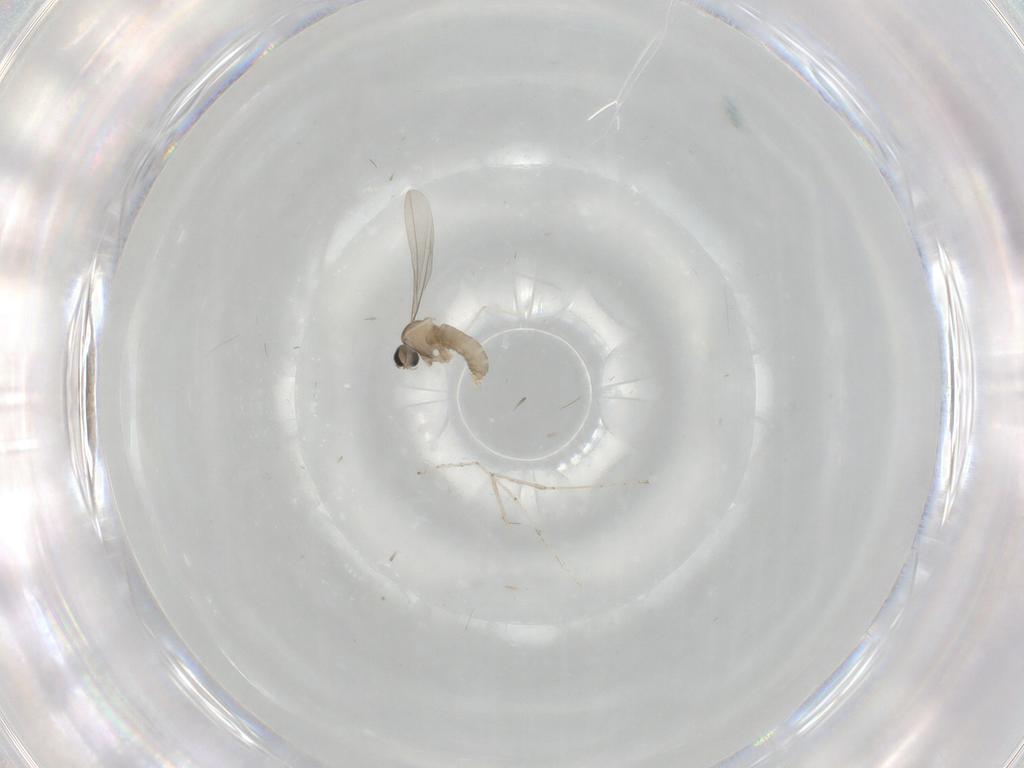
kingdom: Animalia
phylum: Arthropoda
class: Insecta
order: Diptera
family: Cecidomyiidae
